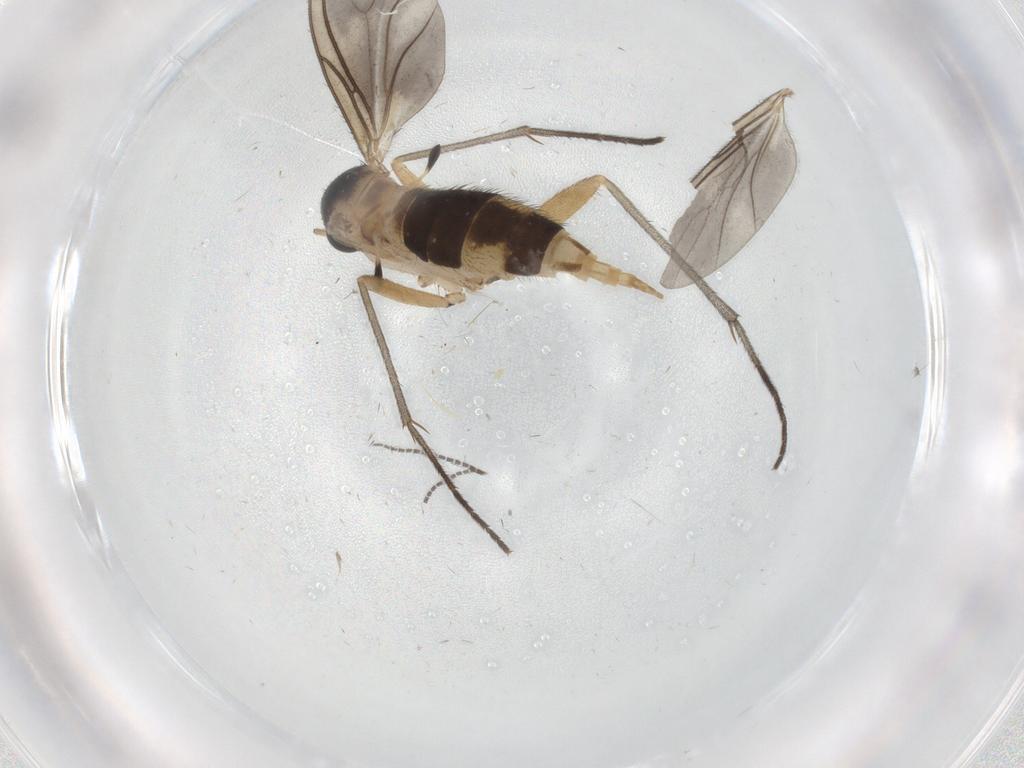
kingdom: Animalia
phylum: Arthropoda
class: Insecta
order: Diptera
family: Sciaridae
